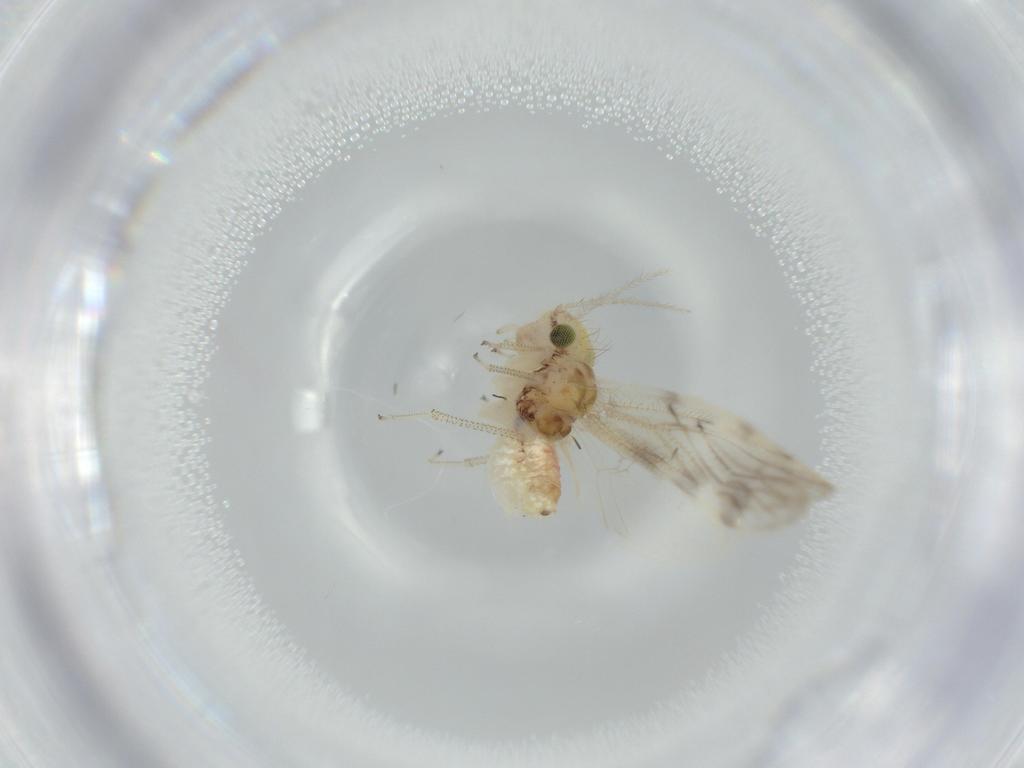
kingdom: Animalia
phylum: Arthropoda
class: Insecta
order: Psocodea
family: Pseudocaeciliidae
